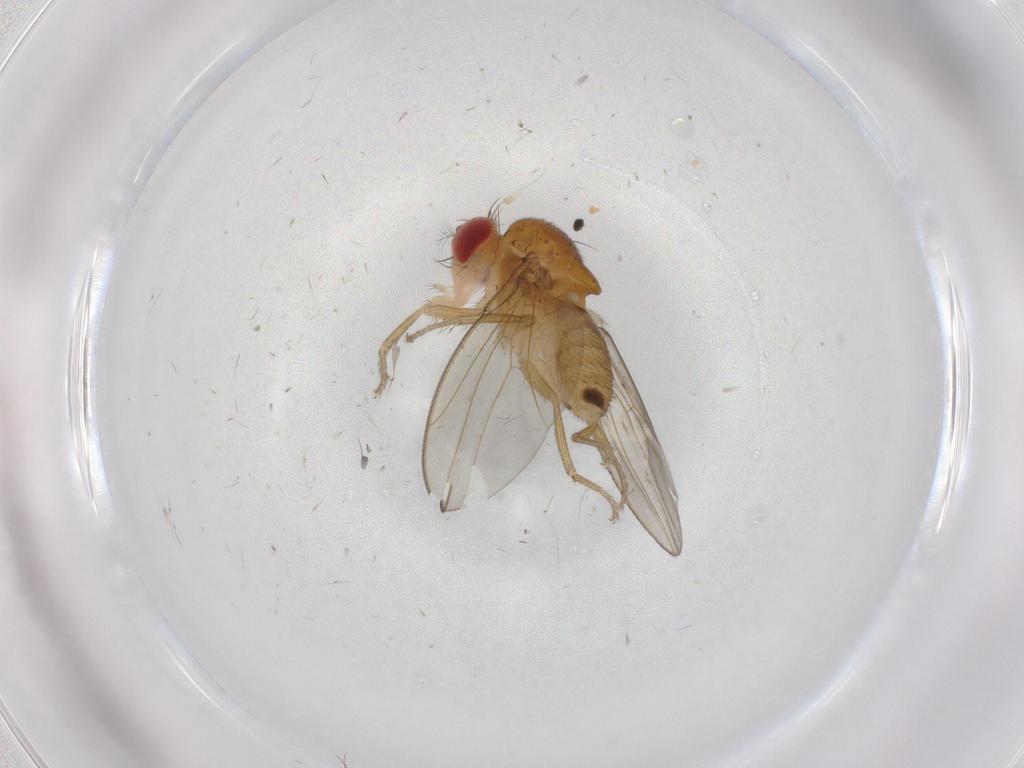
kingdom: Animalia
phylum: Arthropoda
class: Insecta
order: Diptera
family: Drosophilidae
